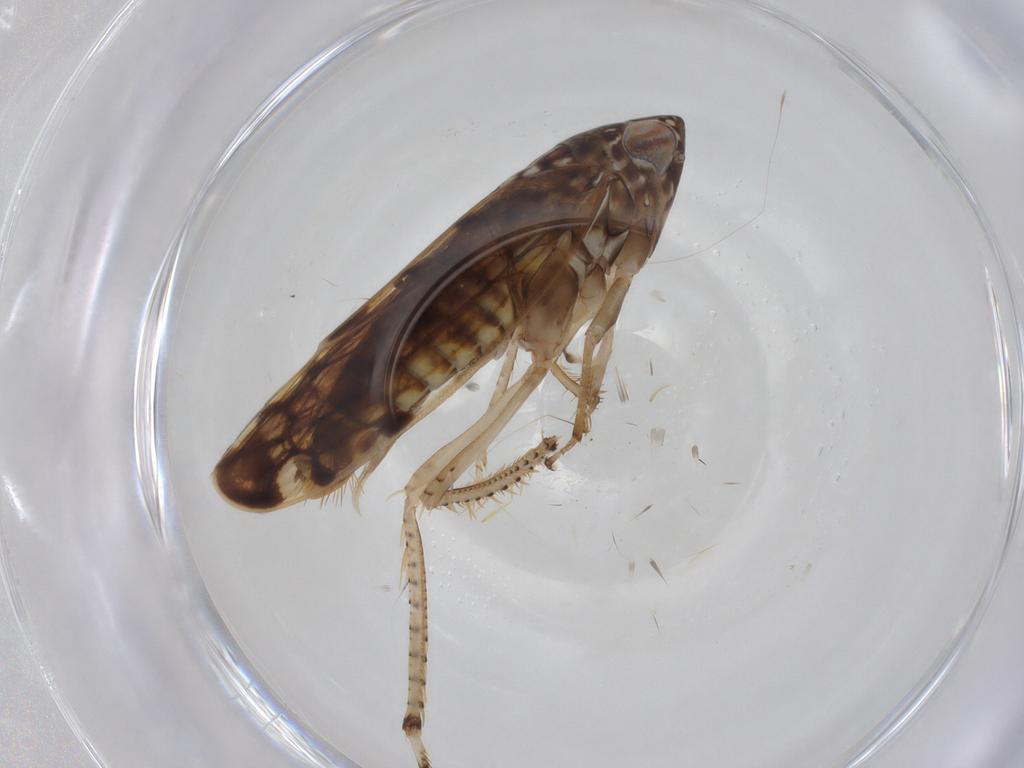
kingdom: Animalia
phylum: Arthropoda
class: Insecta
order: Hemiptera
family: Cicadellidae
